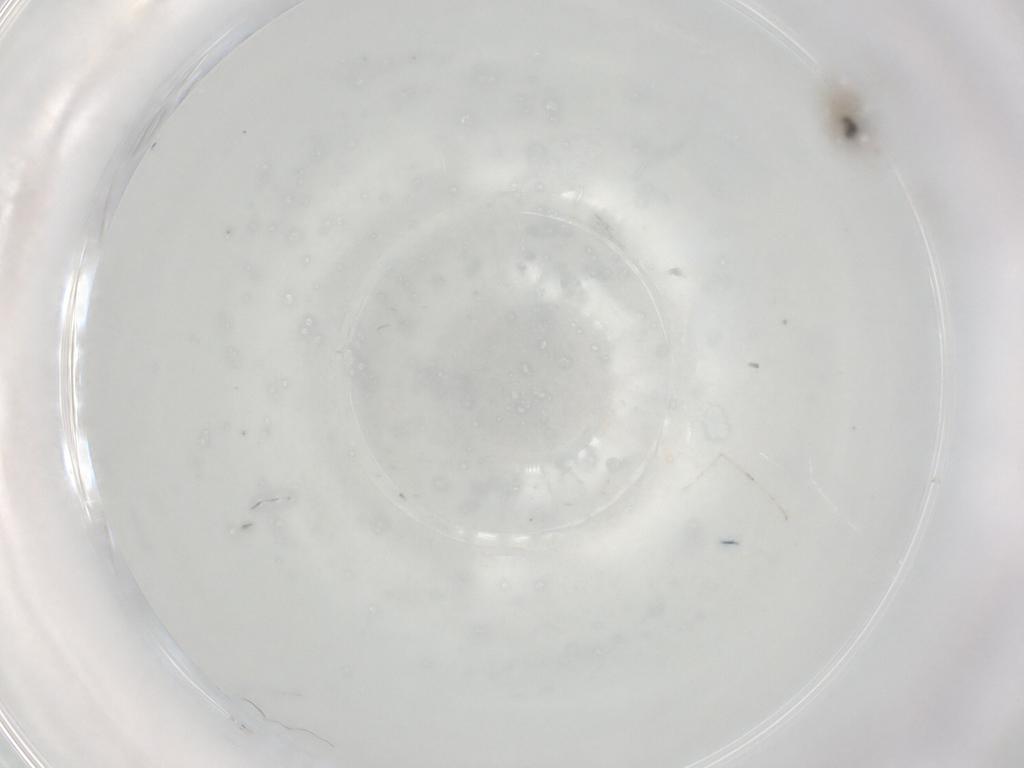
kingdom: Animalia
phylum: Arthropoda
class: Insecta
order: Diptera
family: Cecidomyiidae
